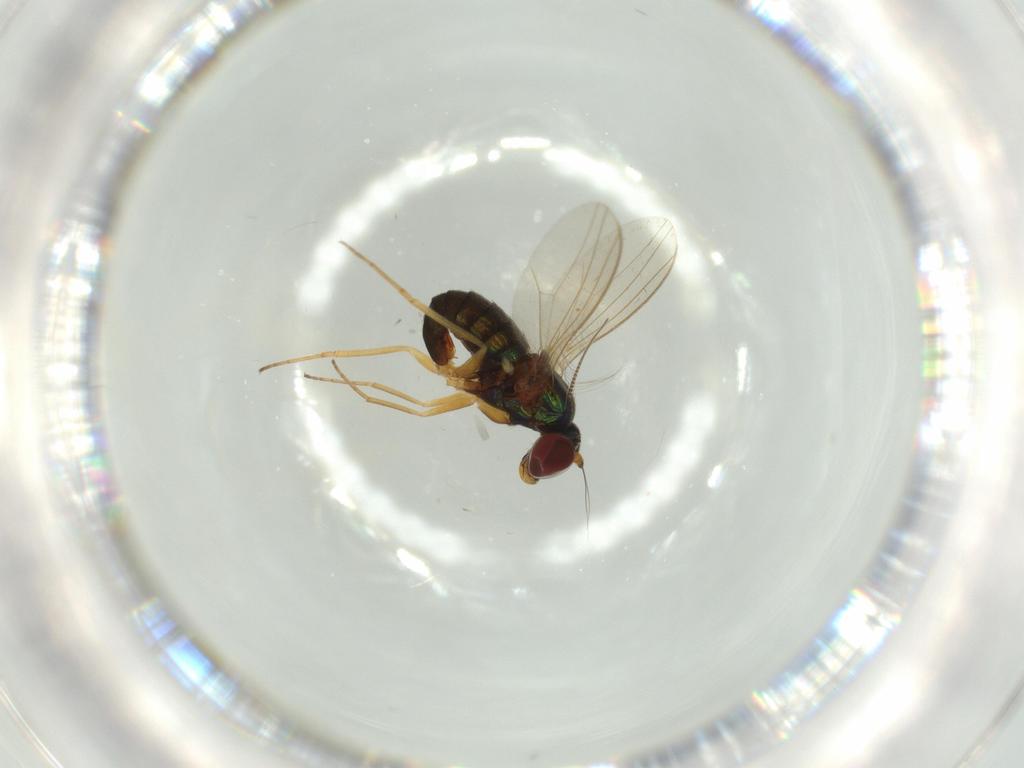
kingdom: Animalia
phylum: Arthropoda
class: Insecta
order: Diptera
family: Dolichopodidae
